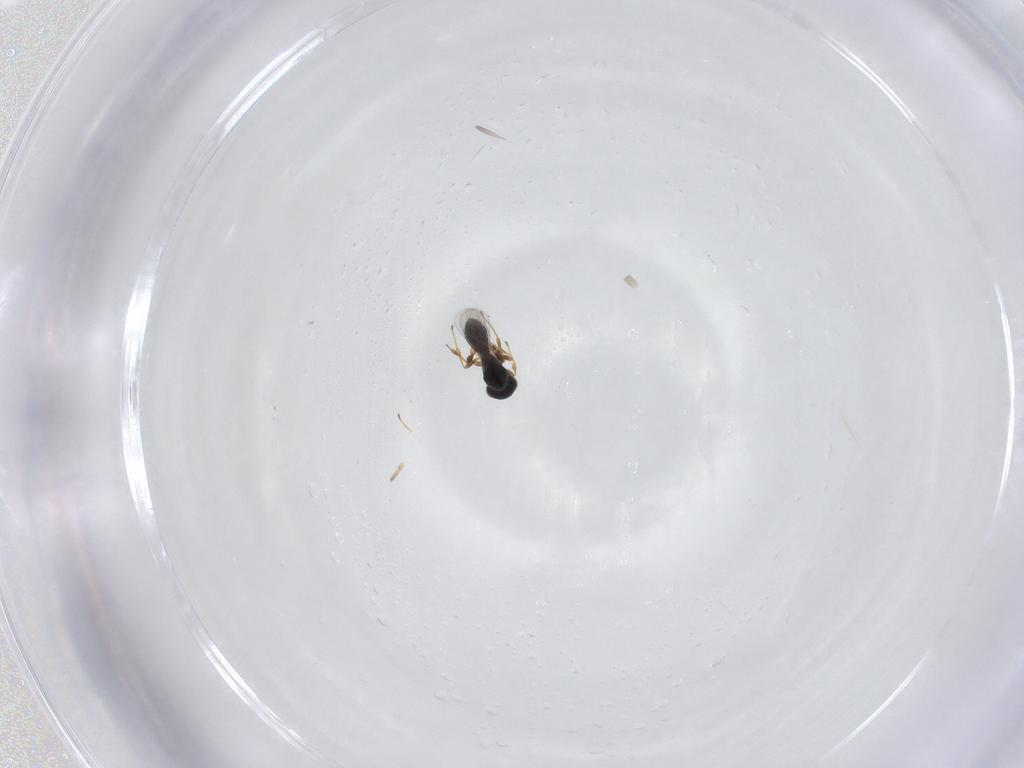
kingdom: Animalia
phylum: Arthropoda
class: Insecta
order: Hymenoptera
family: Platygastridae
